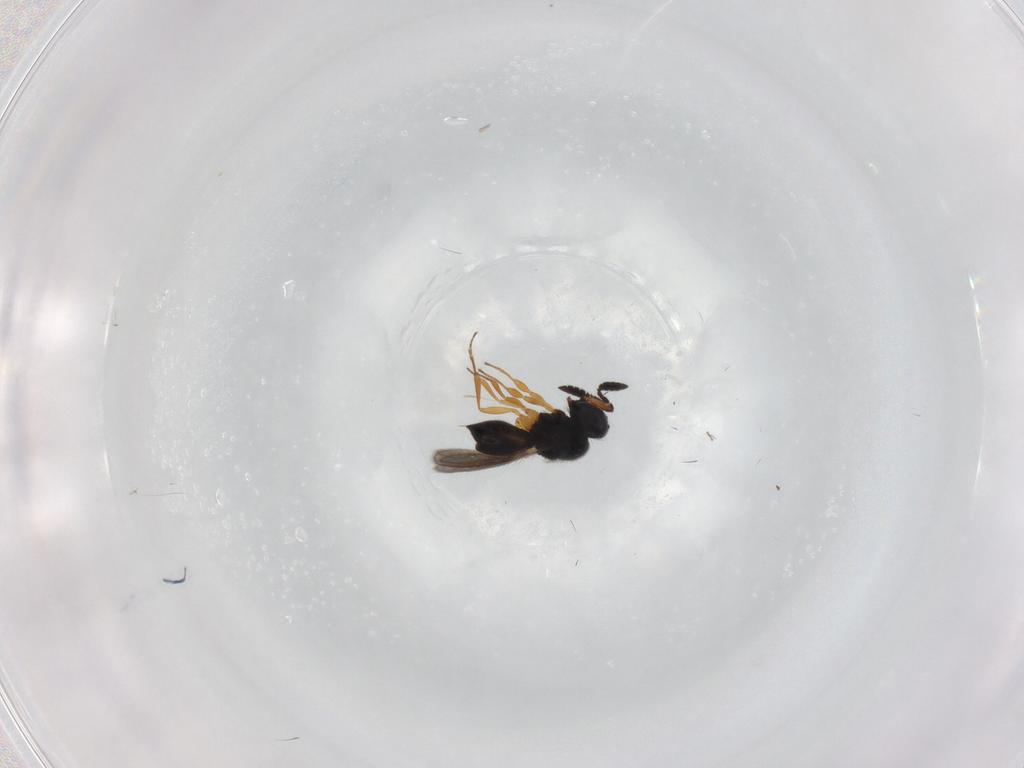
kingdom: Animalia
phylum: Arthropoda
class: Insecta
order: Hymenoptera
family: Scelionidae
